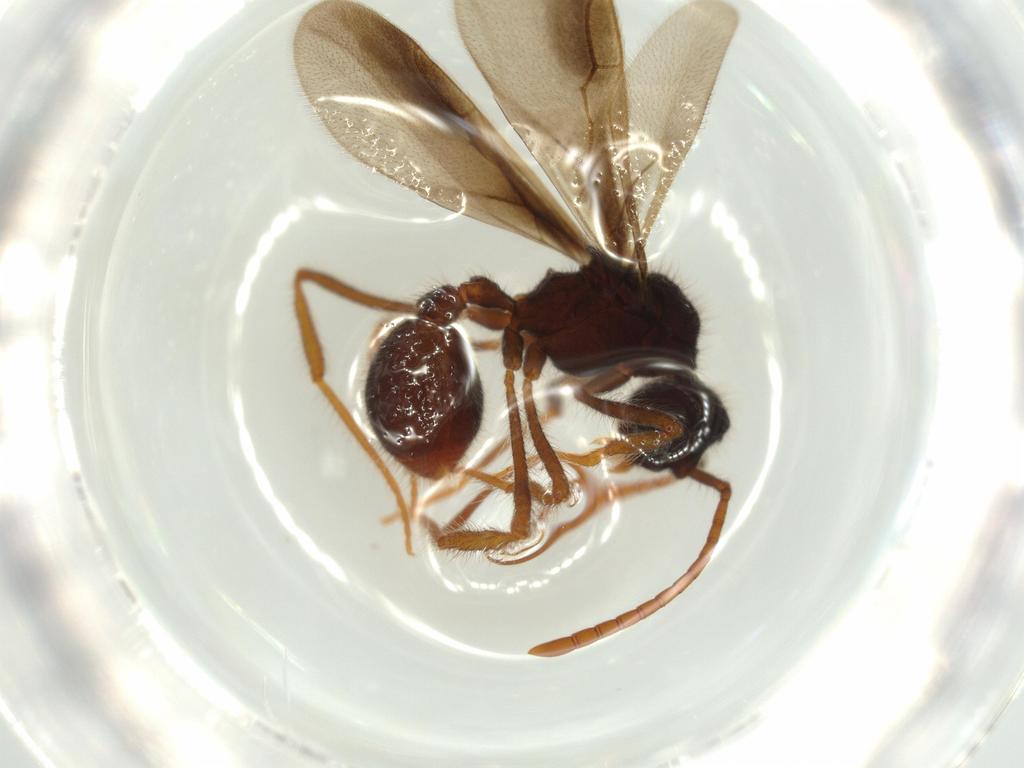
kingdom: Animalia
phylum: Arthropoda
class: Insecta
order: Hymenoptera
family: Formicidae
